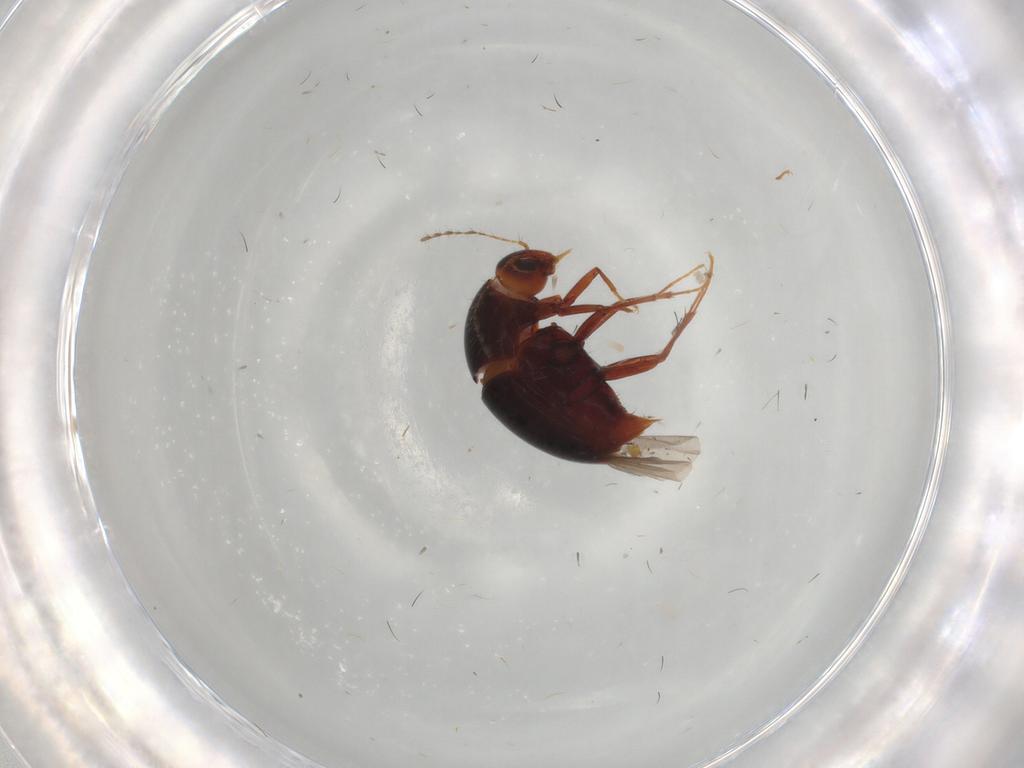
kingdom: Animalia
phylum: Arthropoda
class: Insecta
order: Coleoptera
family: Staphylinidae
